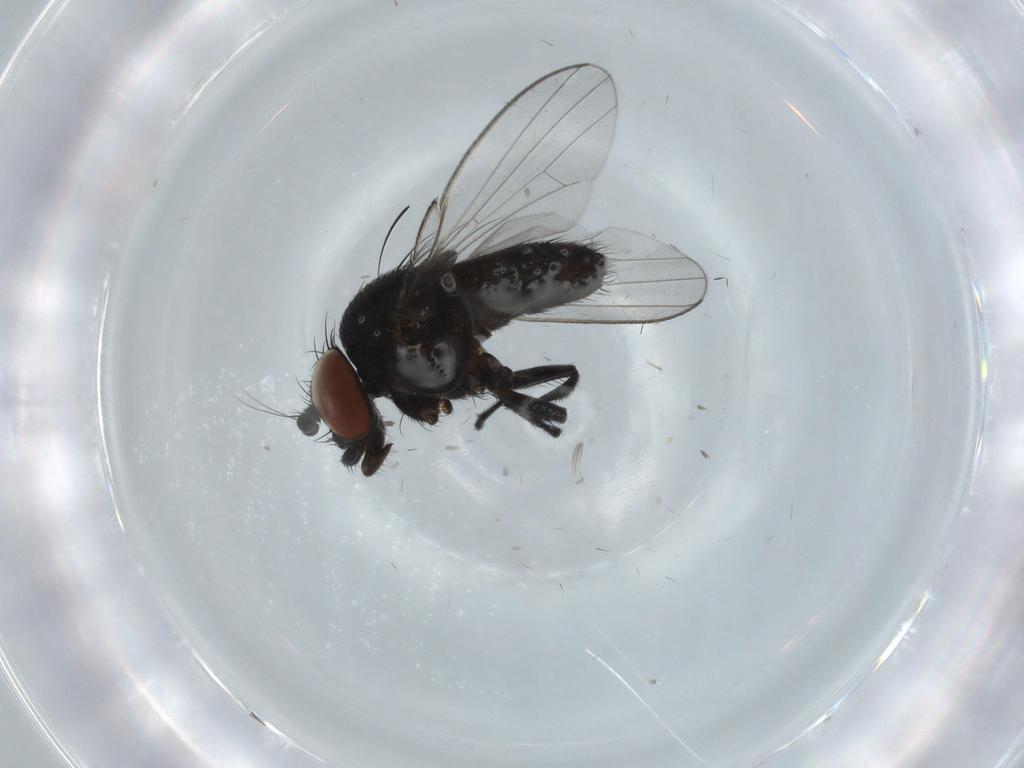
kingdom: Animalia
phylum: Arthropoda
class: Insecta
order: Diptera
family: Milichiidae
